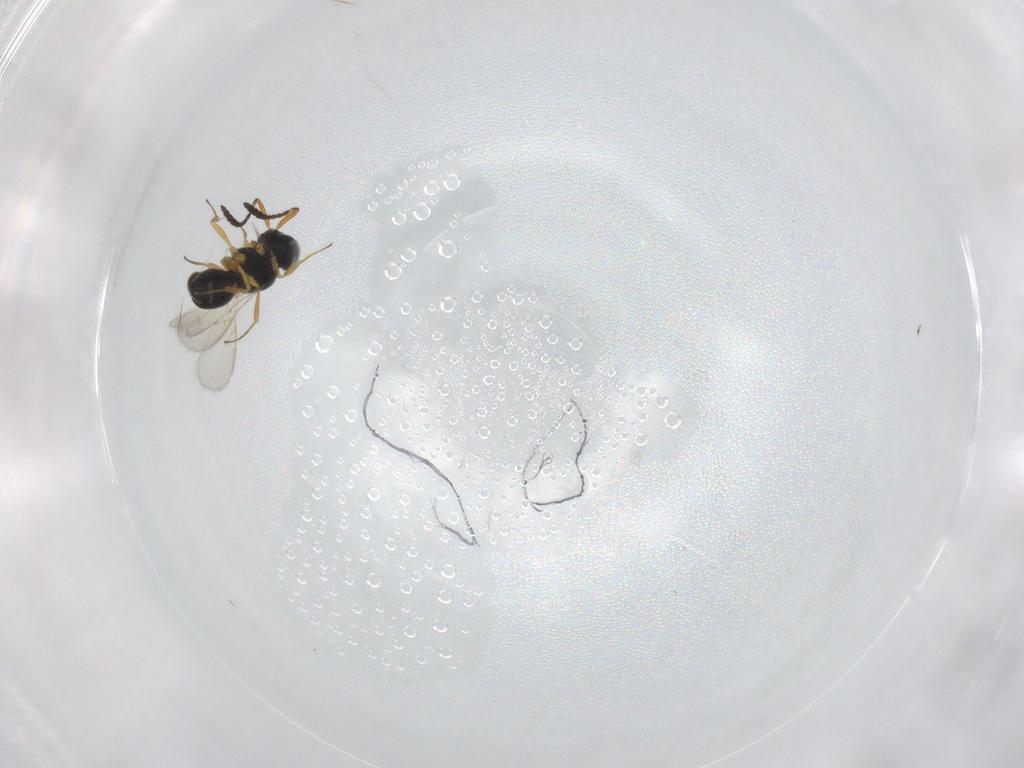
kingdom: Animalia
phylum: Arthropoda
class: Insecta
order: Hymenoptera
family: Scelionidae
